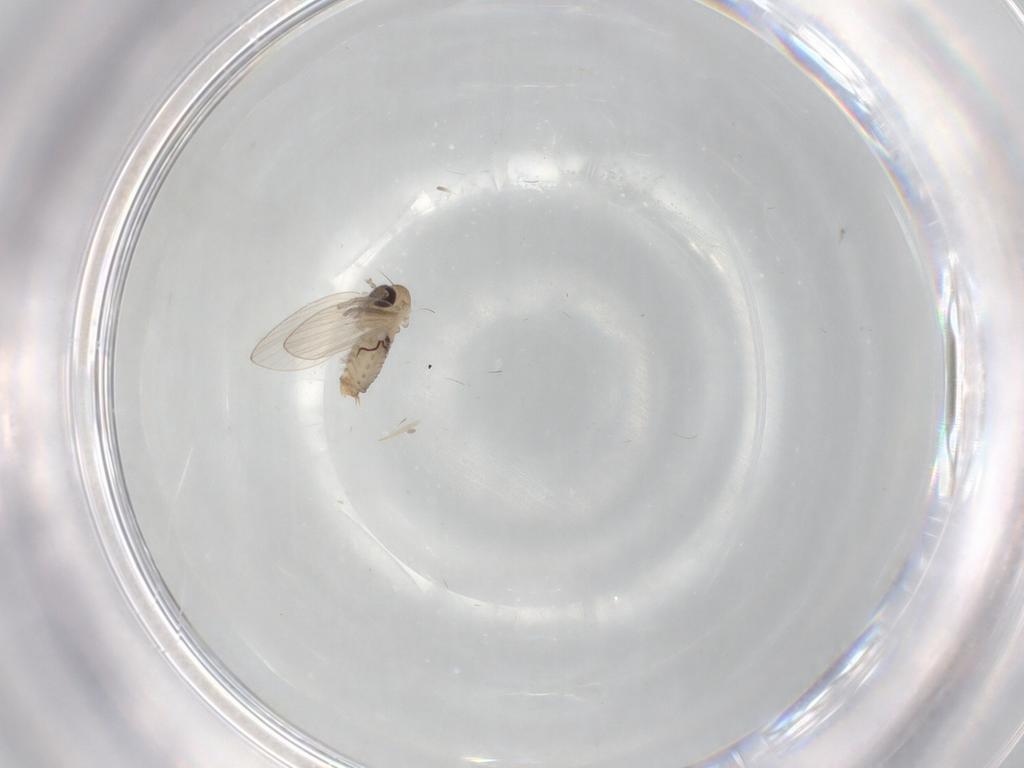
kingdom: Animalia
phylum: Arthropoda
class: Insecta
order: Diptera
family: Psychodidae
